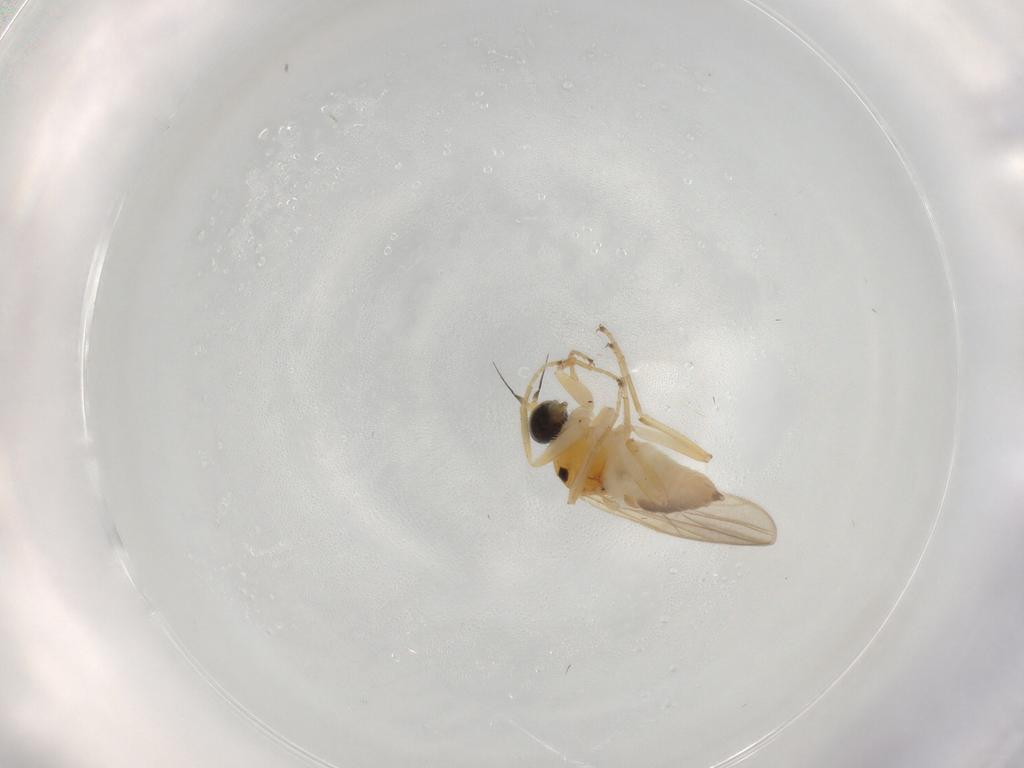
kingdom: Animalia
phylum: Arthropoda
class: Insecta
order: Diptera
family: Hybotidae
